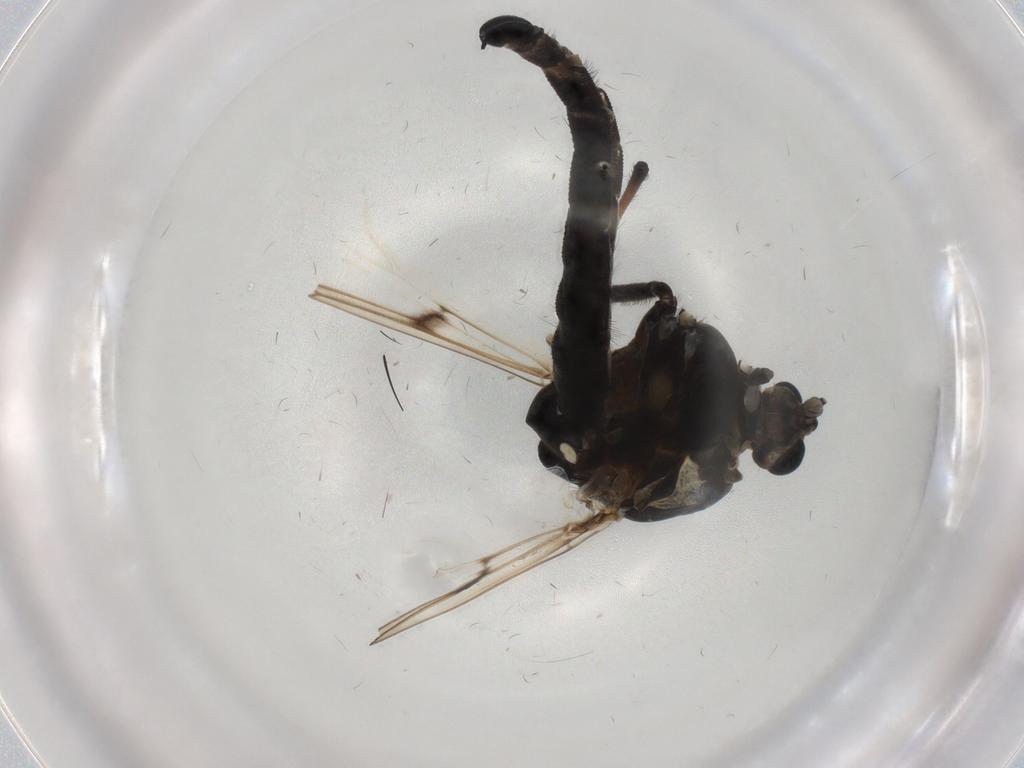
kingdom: Animalia
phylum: Arthropoda
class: Insecta
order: Diptera
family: Chironomidae
